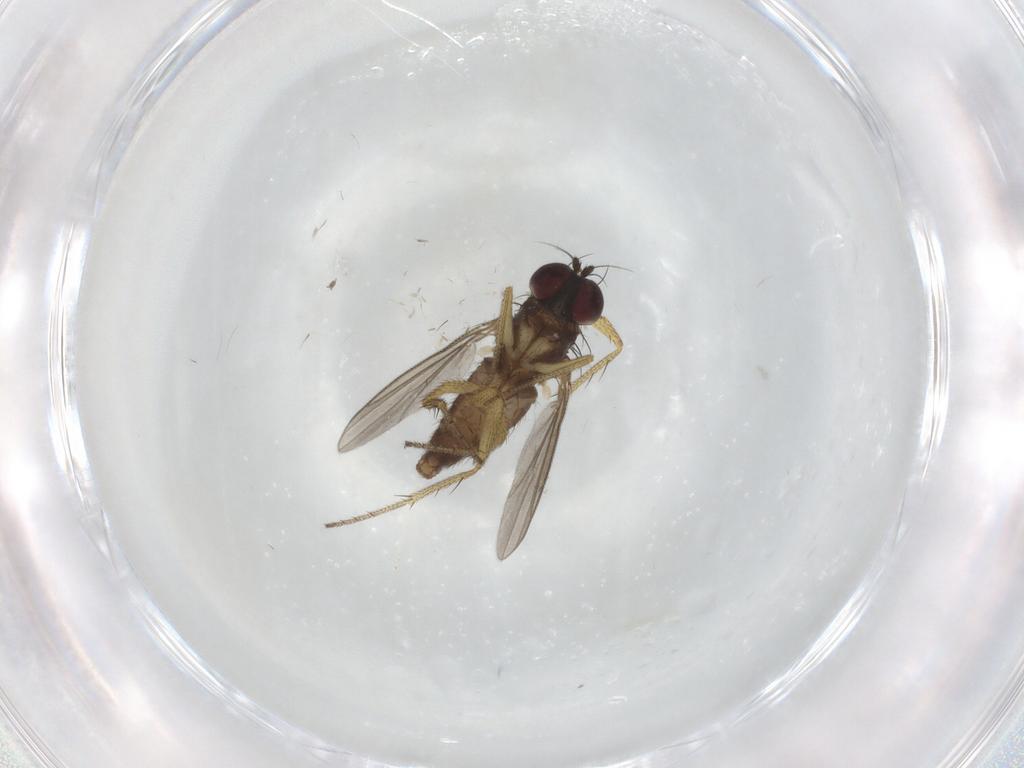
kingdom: Animalia
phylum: Arthropoda
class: Insecta
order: Diptera
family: Dolichopodidae
